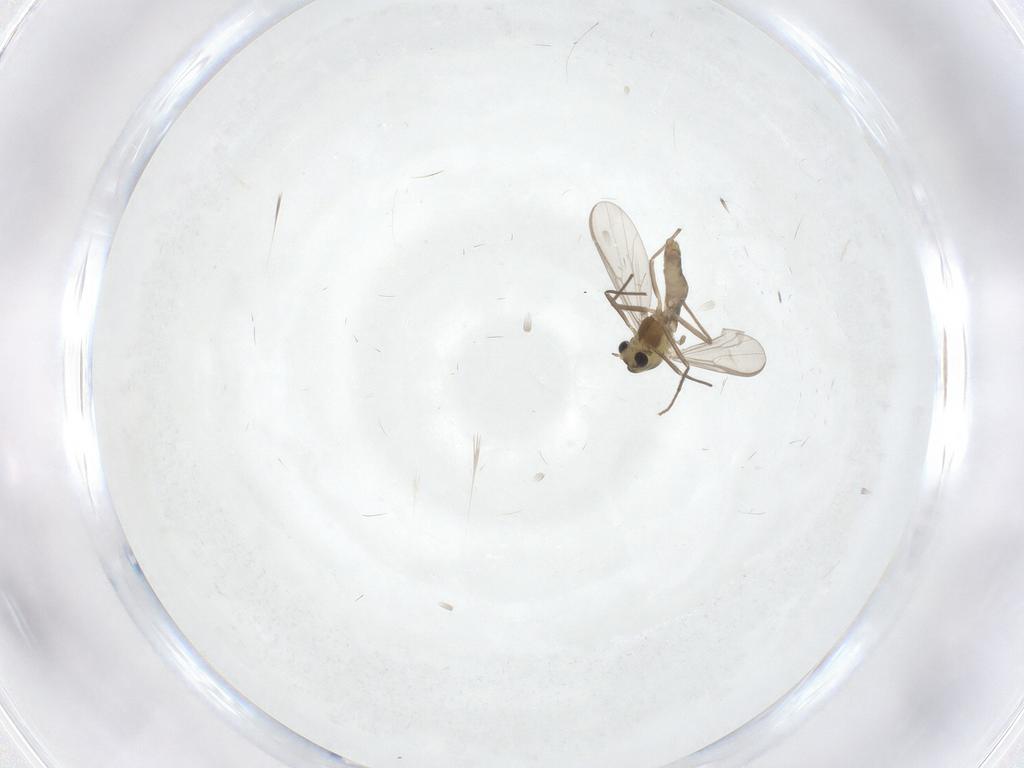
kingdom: Animalia
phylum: Arthropoda
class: Insecta
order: Diptera
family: Chironomidae
